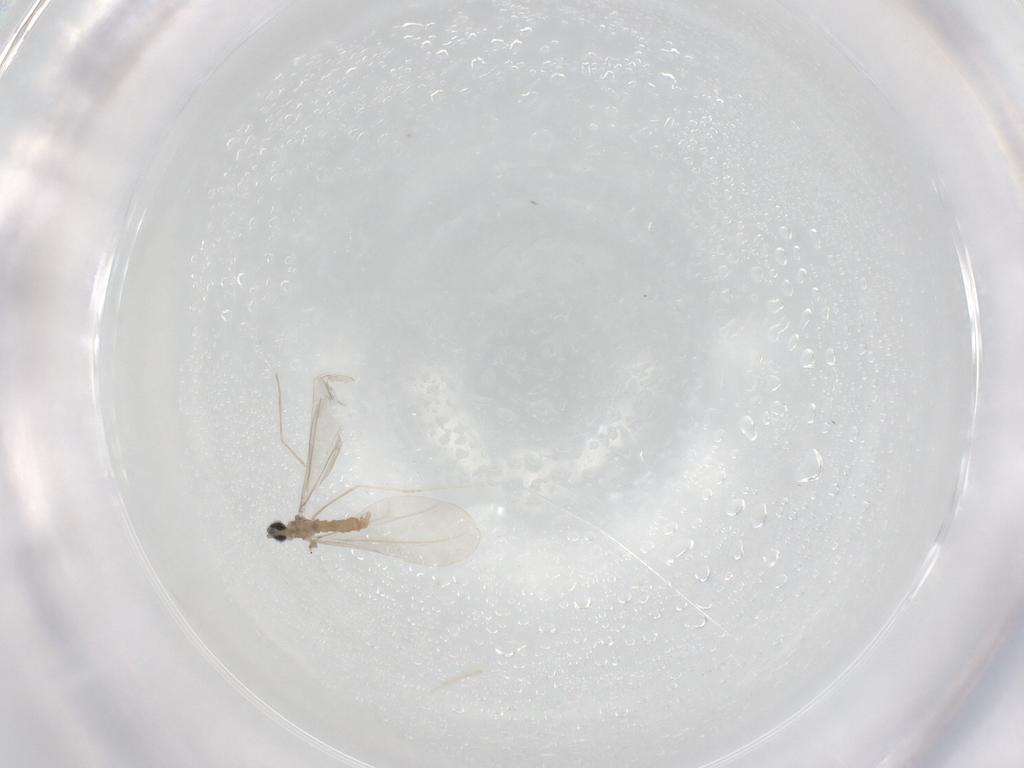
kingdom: Animalia
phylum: Arthropoda
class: Insecta
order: Diptera
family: Cecidomyiidae
